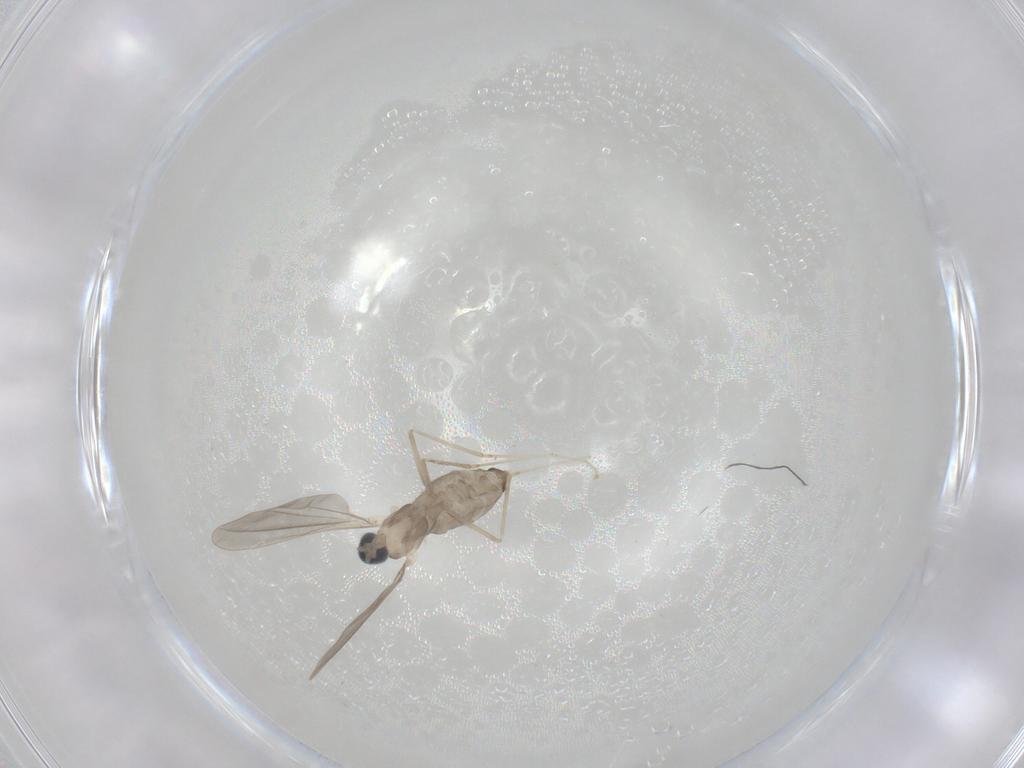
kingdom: Animalia
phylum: Arthropoda
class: Insecta
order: Diptera
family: Cecidomyiidae
